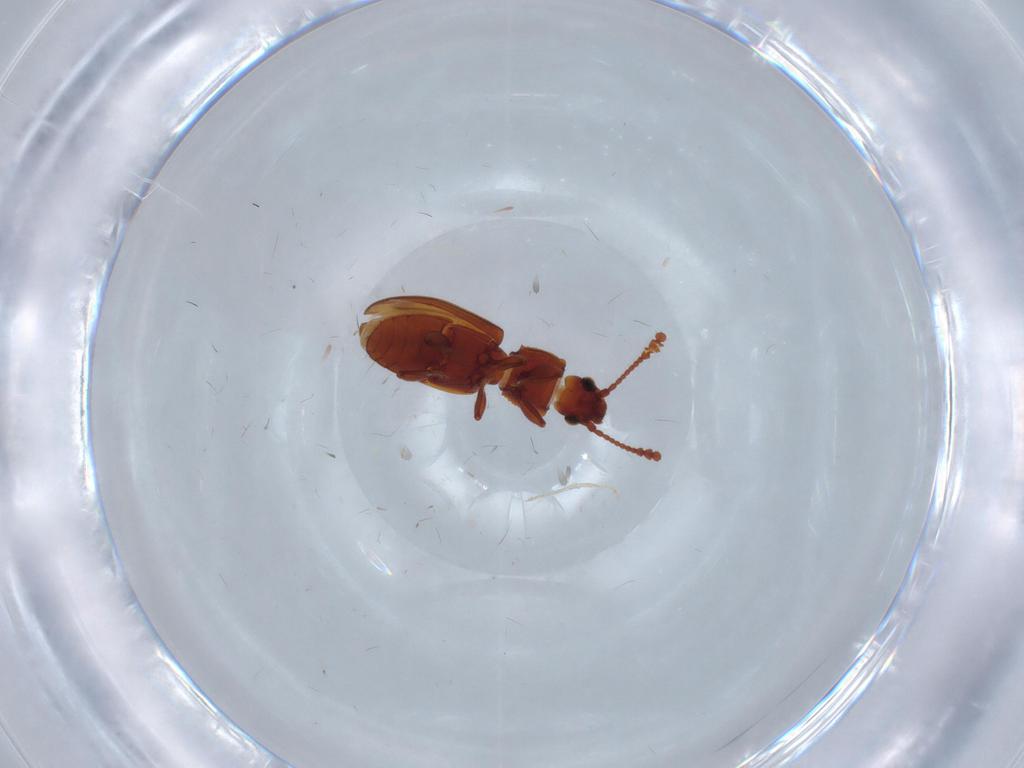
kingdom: Animalia
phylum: Arthropoda
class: Insecta
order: Coleoptera
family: Silvanidae
